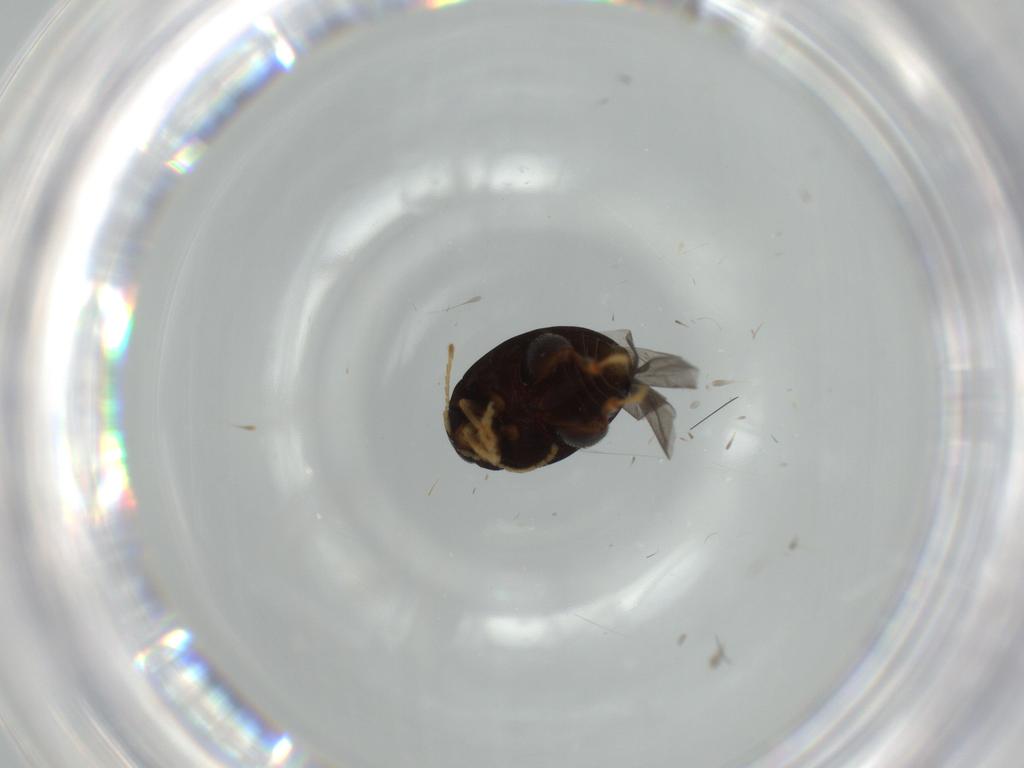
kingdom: Animalia
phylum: Arthropoda
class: Insecta
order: Coleoptera
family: Chrysomelidae
